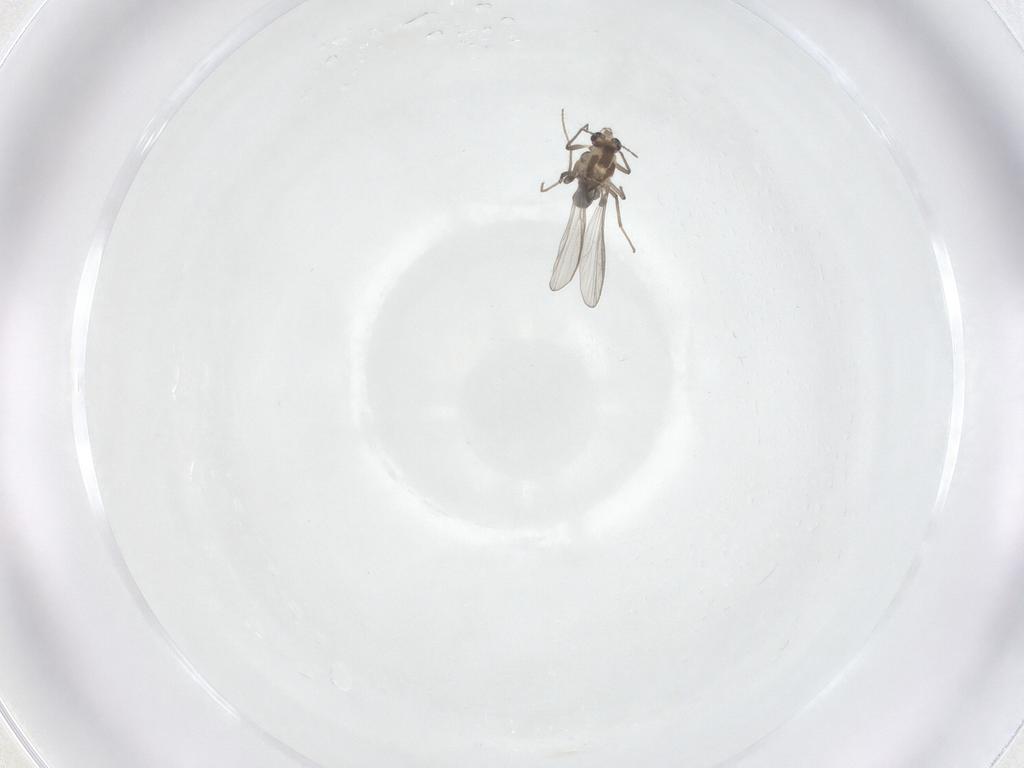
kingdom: Animalia
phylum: Arthropoda
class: Insecta
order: Diptera
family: Chironomidae
